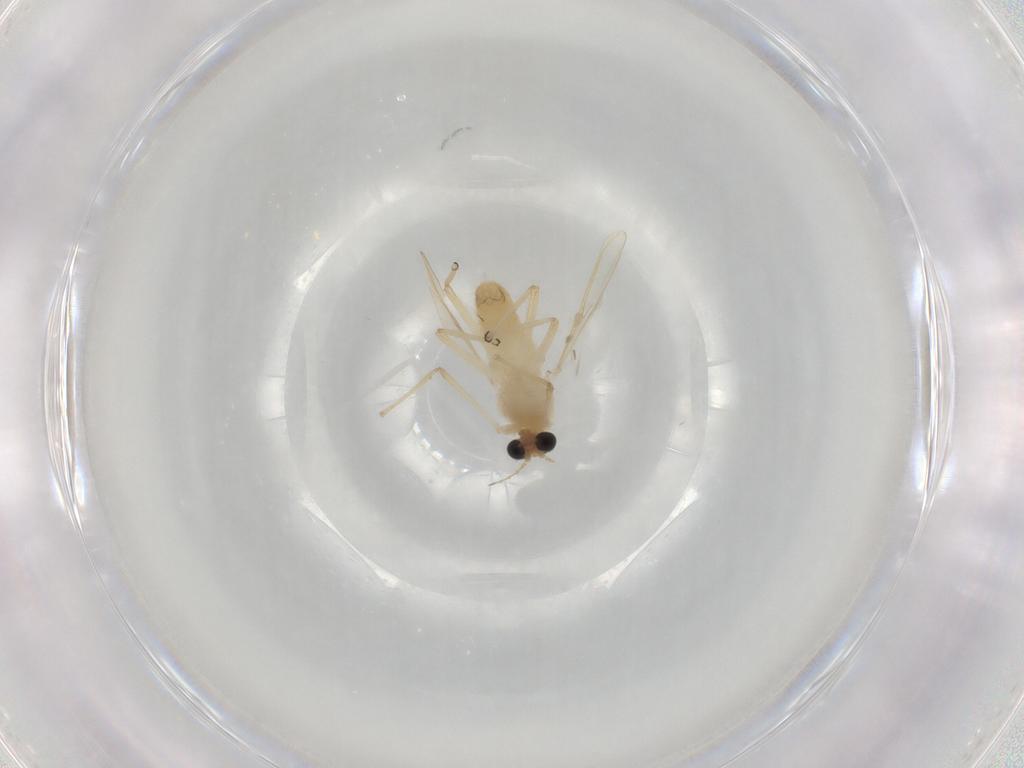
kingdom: Animalia
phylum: Arthropoda
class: Insecta
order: Diptera
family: Chironomidae
